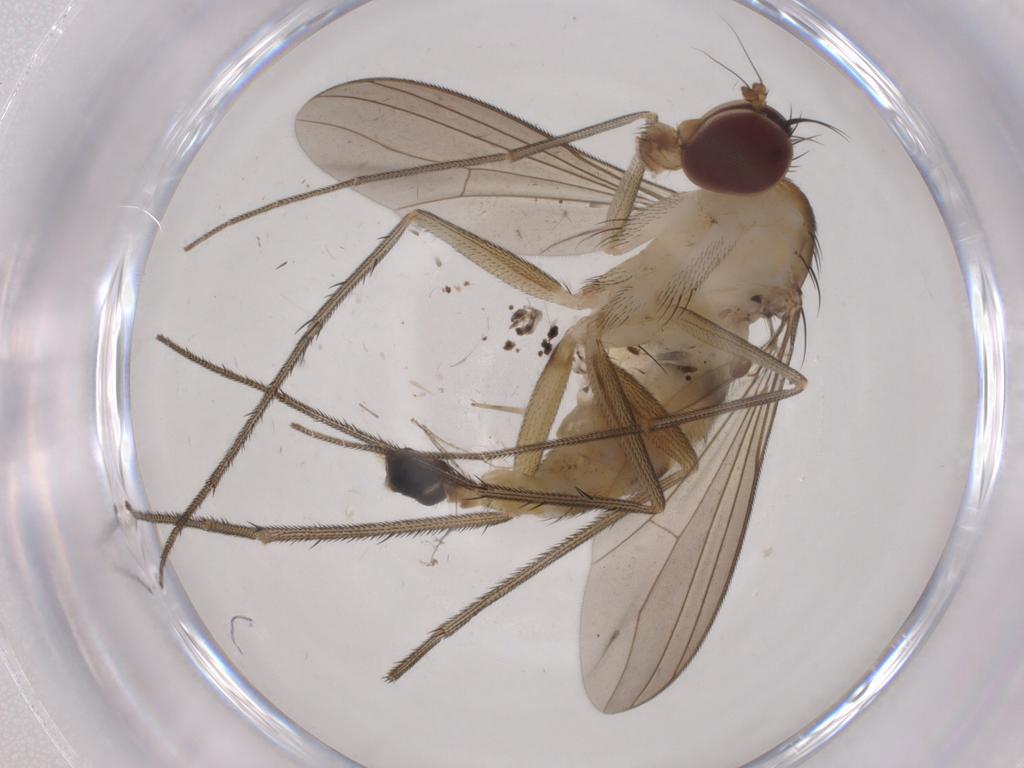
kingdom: Animalia
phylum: Arthropoda
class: Insecta
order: Diptera
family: Dolichopodidae
